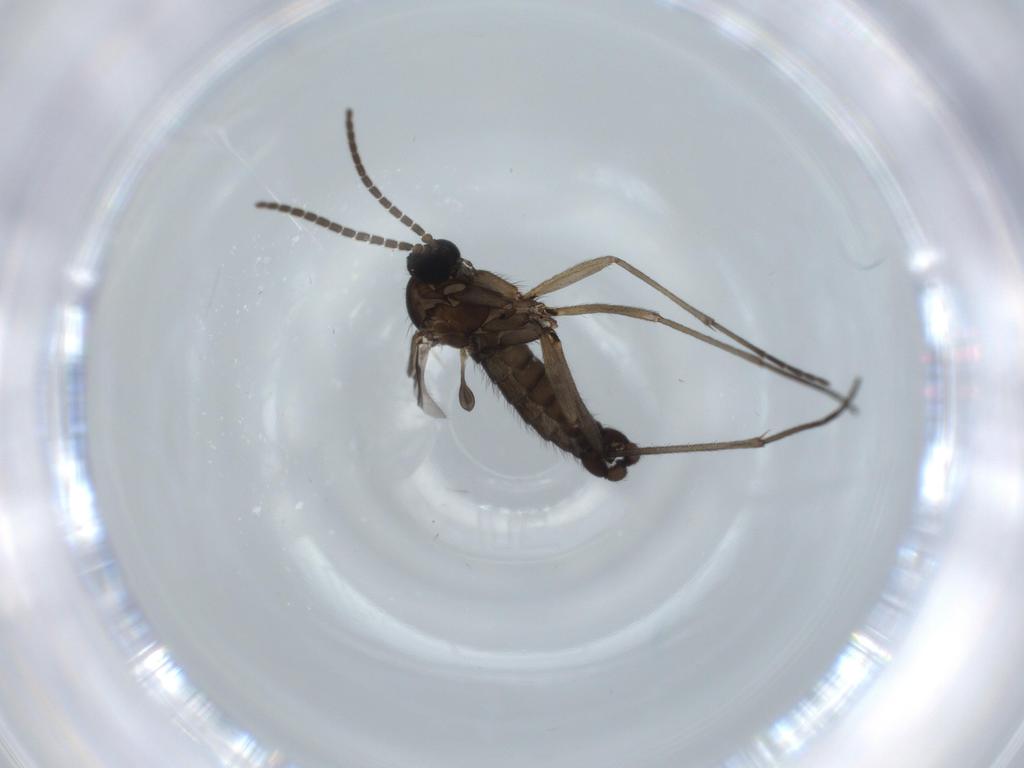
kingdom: Animalia
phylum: Arthropoda
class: Insecta
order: Diptera
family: Sciaridae
